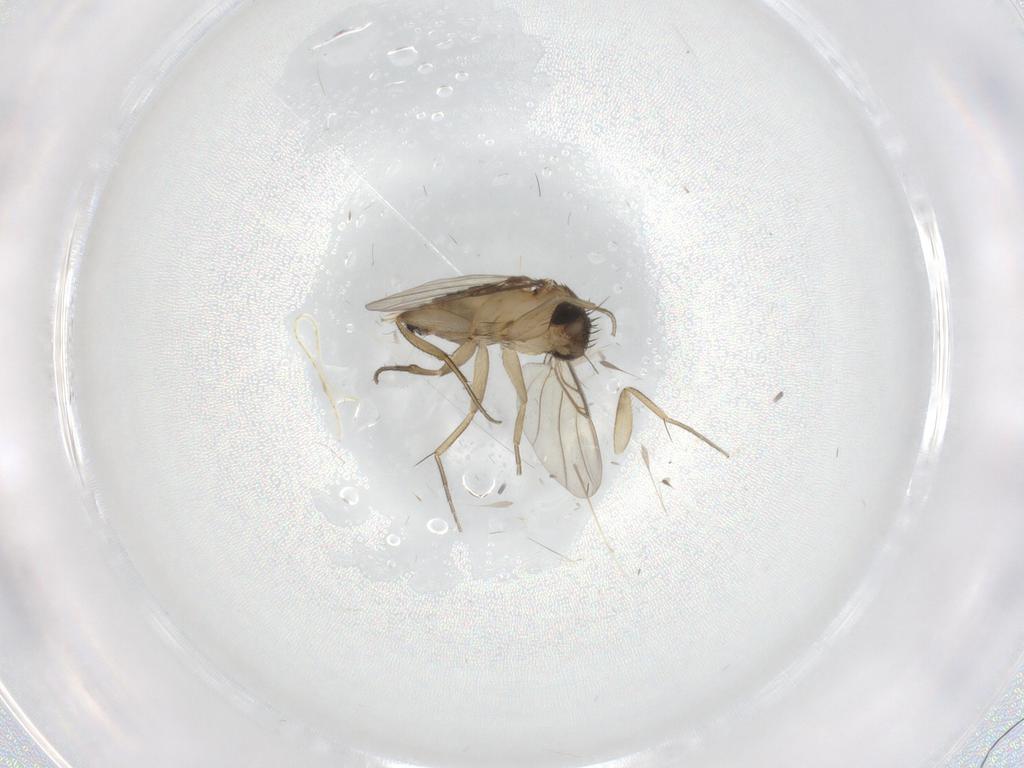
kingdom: Animalia
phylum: Arthropoda
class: Insecta
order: Diptera
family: Phoridae
